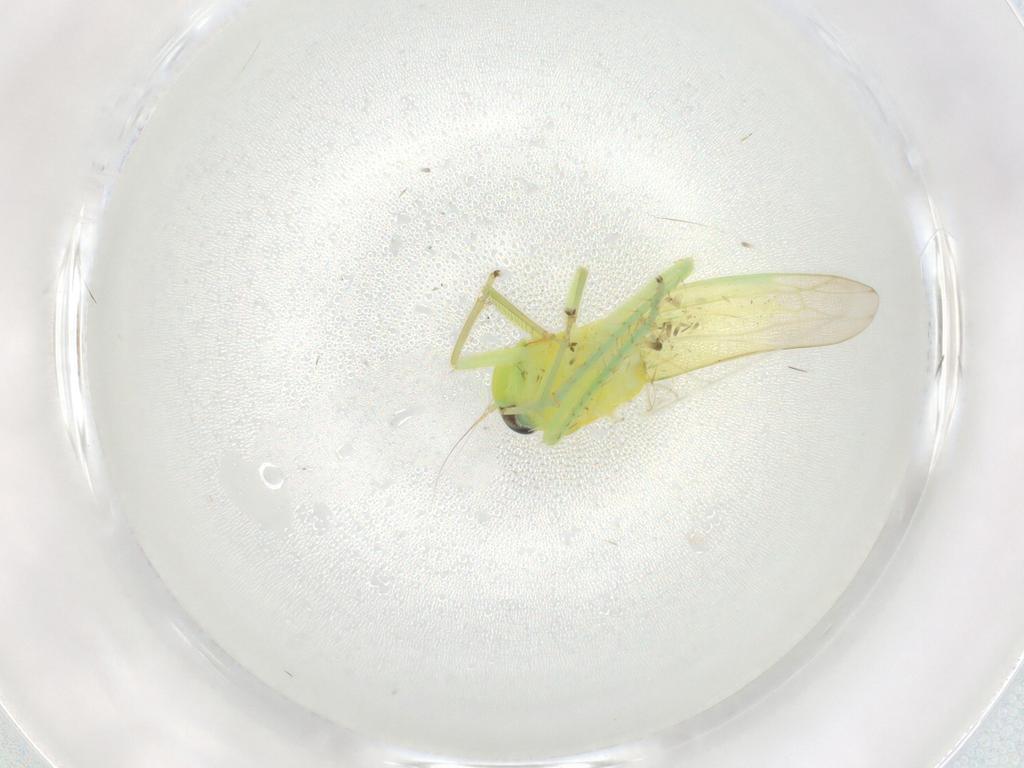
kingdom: Animalia
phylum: Arthropoda
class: Insecta
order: Hemiptera
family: Cicadellidae
